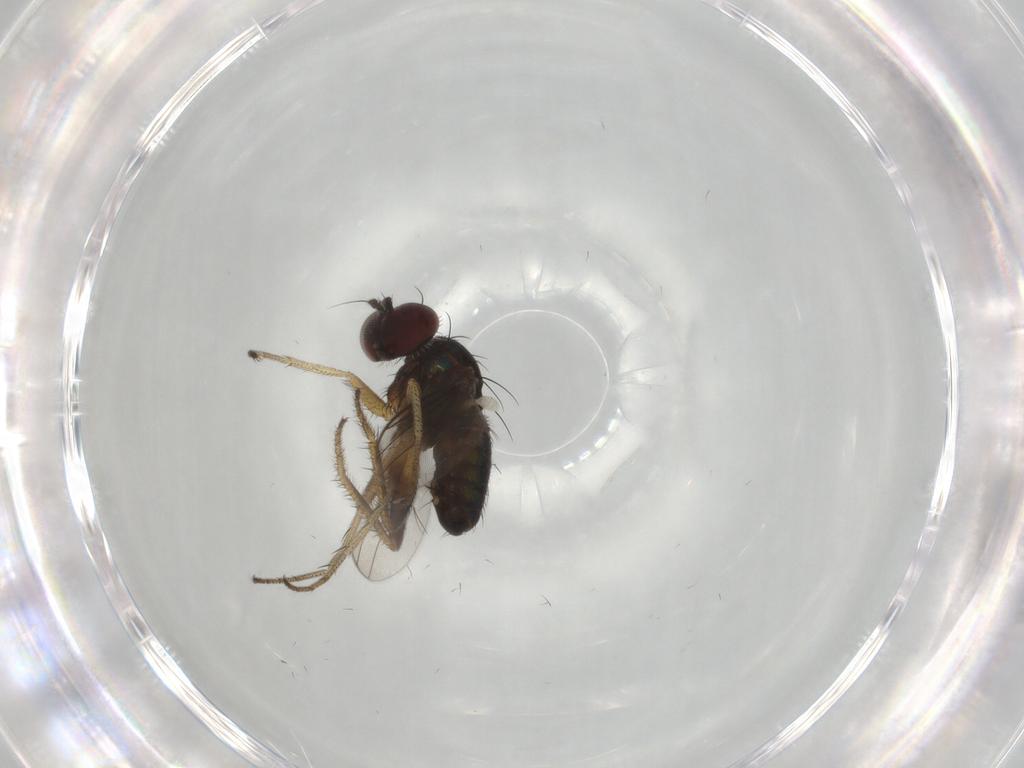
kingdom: Animalia
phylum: Arthropoda
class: Insecta
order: Diptera
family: Dolichopodidae
